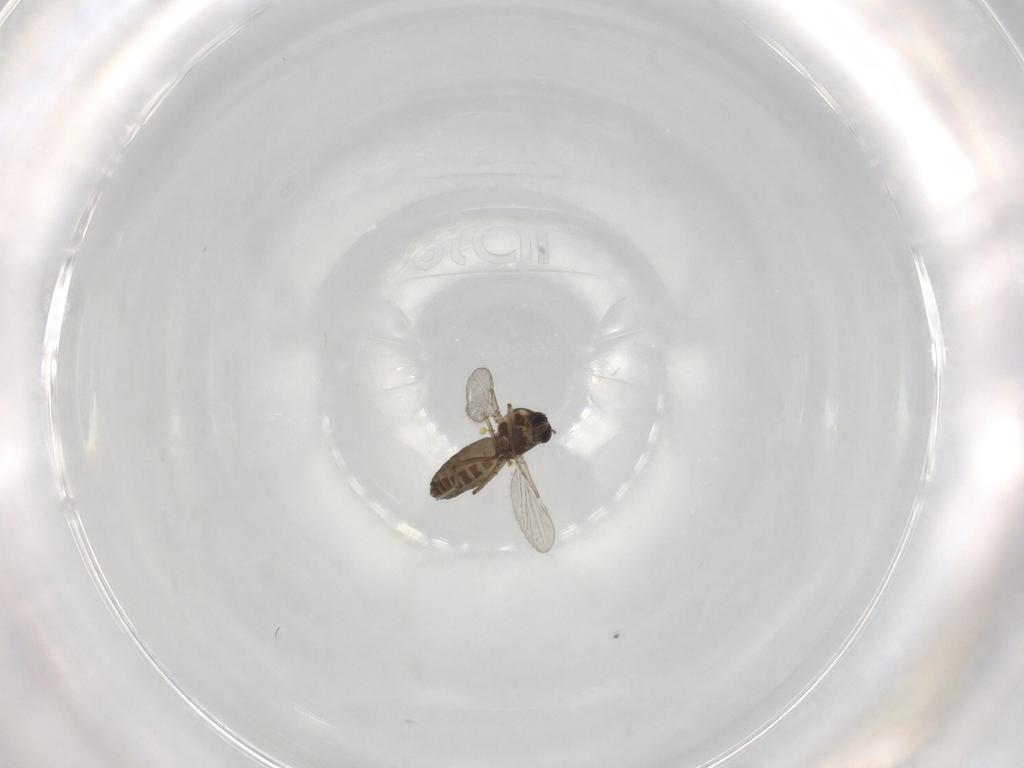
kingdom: Animalia
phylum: Arthropoda
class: Insecta
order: Diptera
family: Ceratopogonidae
